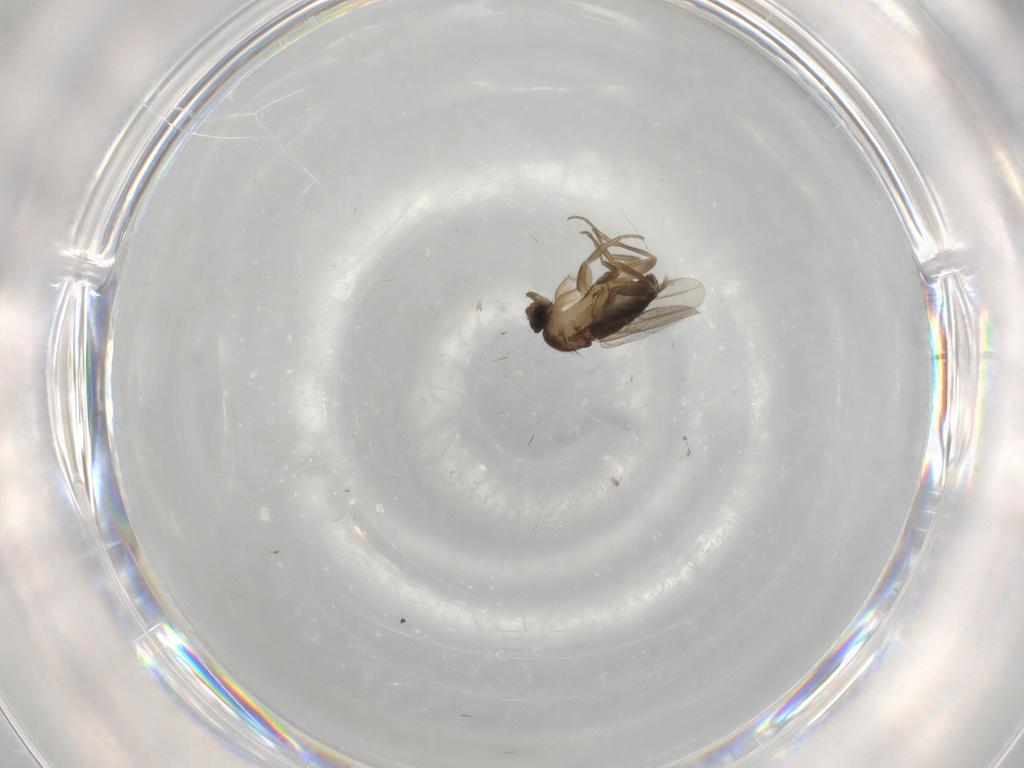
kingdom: Animalia
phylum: Arthropoda
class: Insecta
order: Diptera
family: Phoridae
